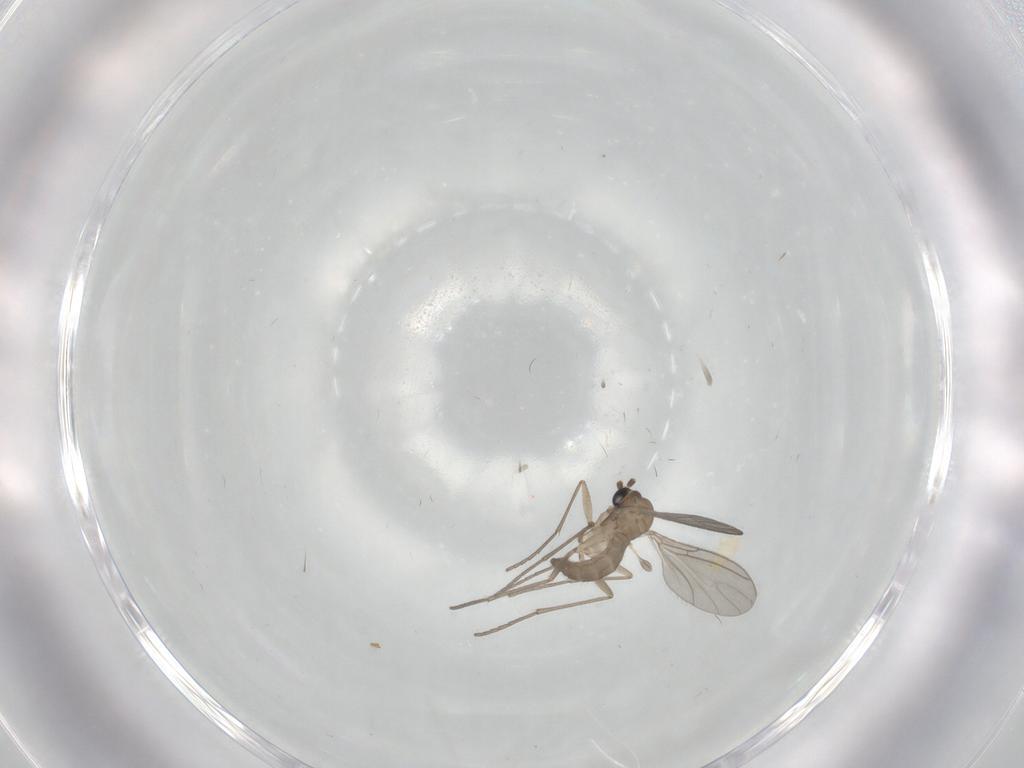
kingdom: Animalia
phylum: Arthropoda
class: Insecta
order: Diptera
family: Sciaridae
